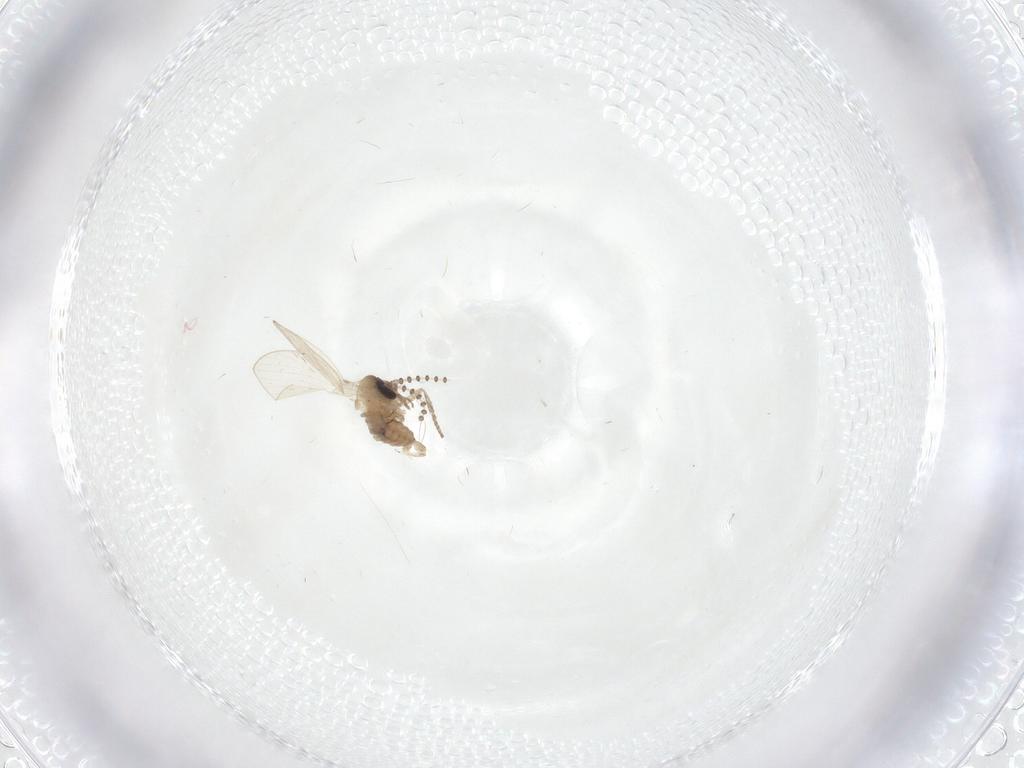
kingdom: Animalia
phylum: Arthropoda
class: Insecta
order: Diptera
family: Psychodidae
